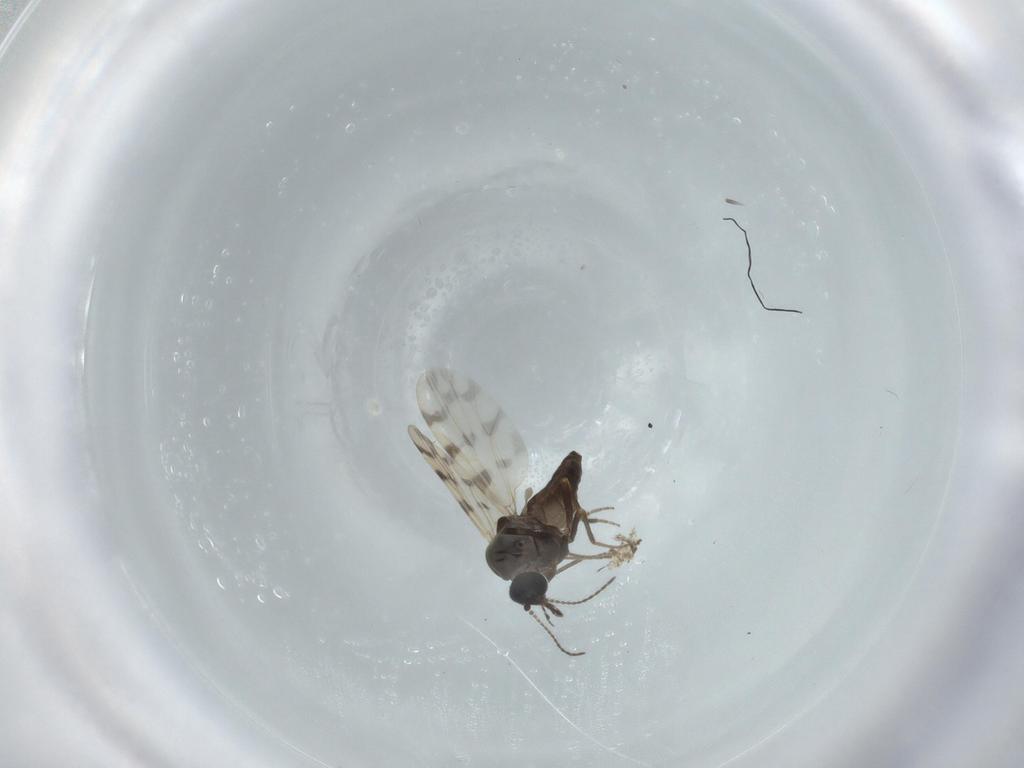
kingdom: Animalia
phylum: Arthropoda
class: Insecta
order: Diptera
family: Ceratopogonidae
